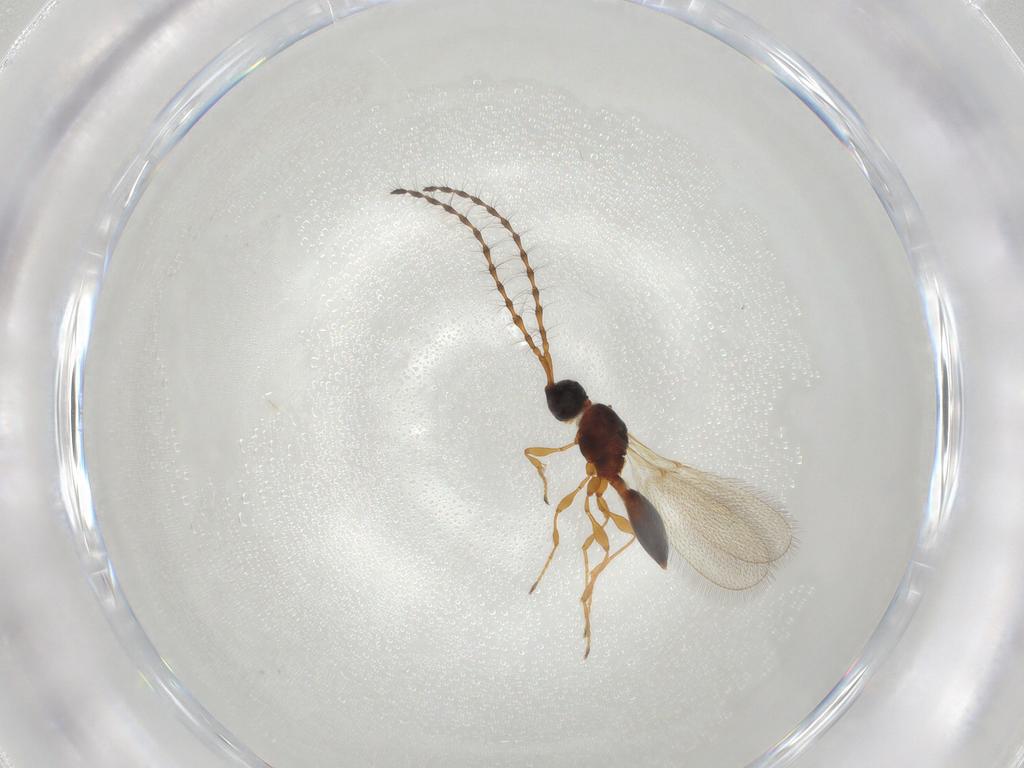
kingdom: Animalia
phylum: Arthropoda
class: Insecta
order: Hymenoptera
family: Diapriidae
